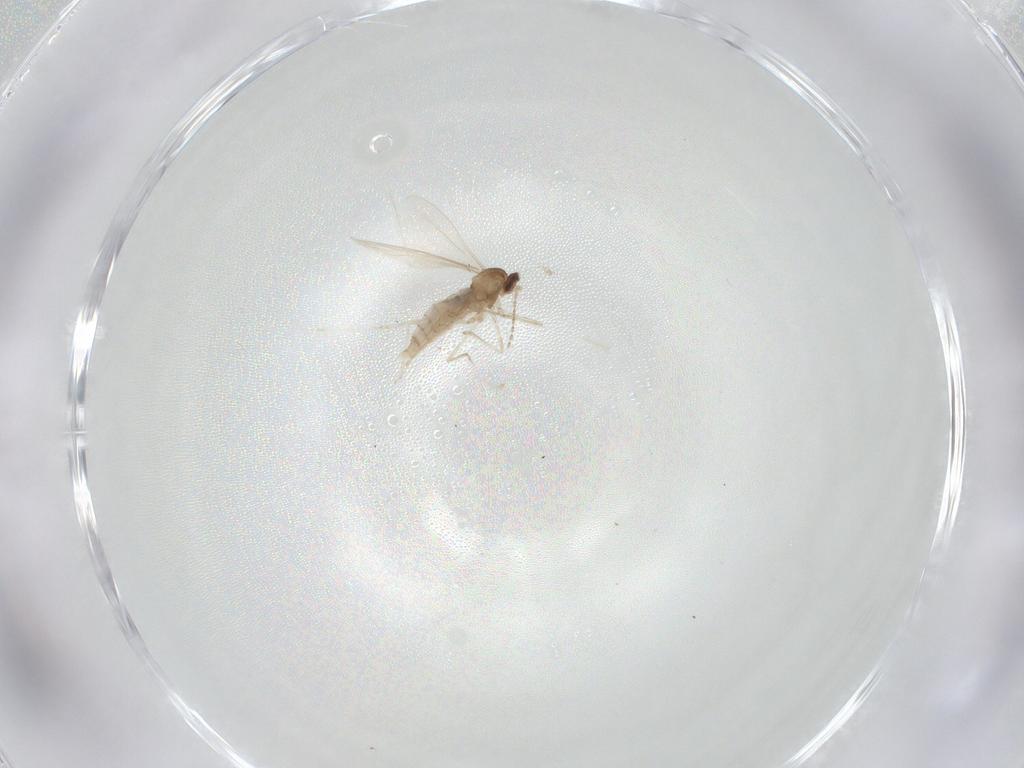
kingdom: Animalia
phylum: Arthropoda
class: Insecta
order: Diptera
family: Cecidomyiidae
